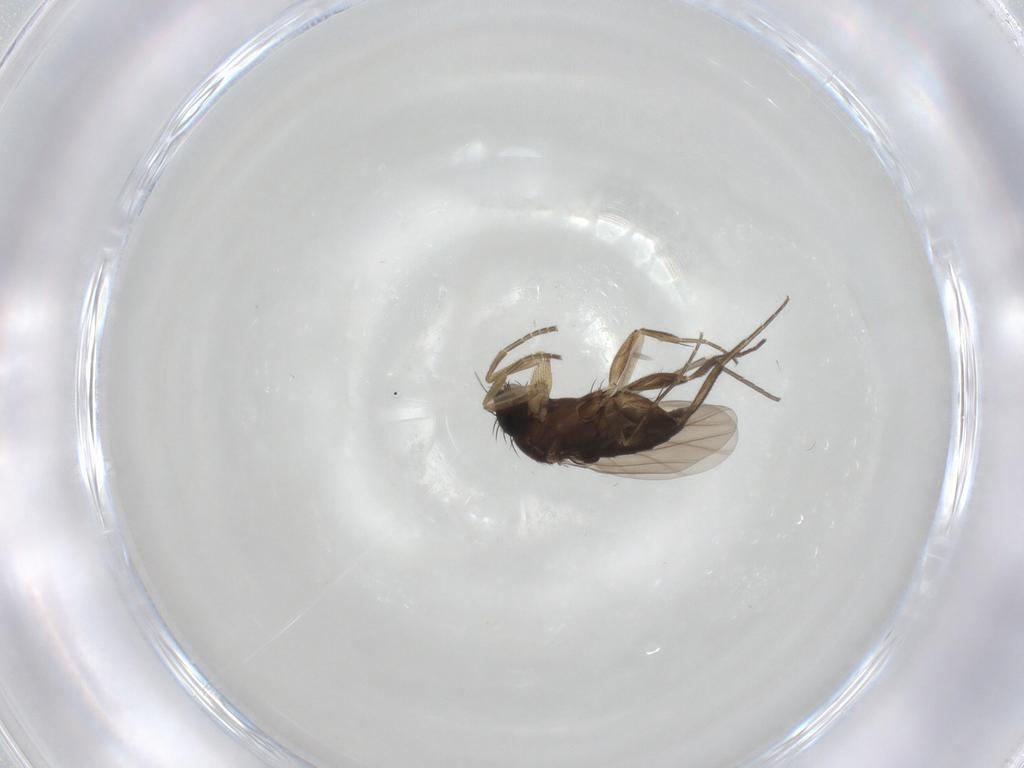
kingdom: Animalia
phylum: Arthropoda
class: Insecta
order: Diptera
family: Phoridae
